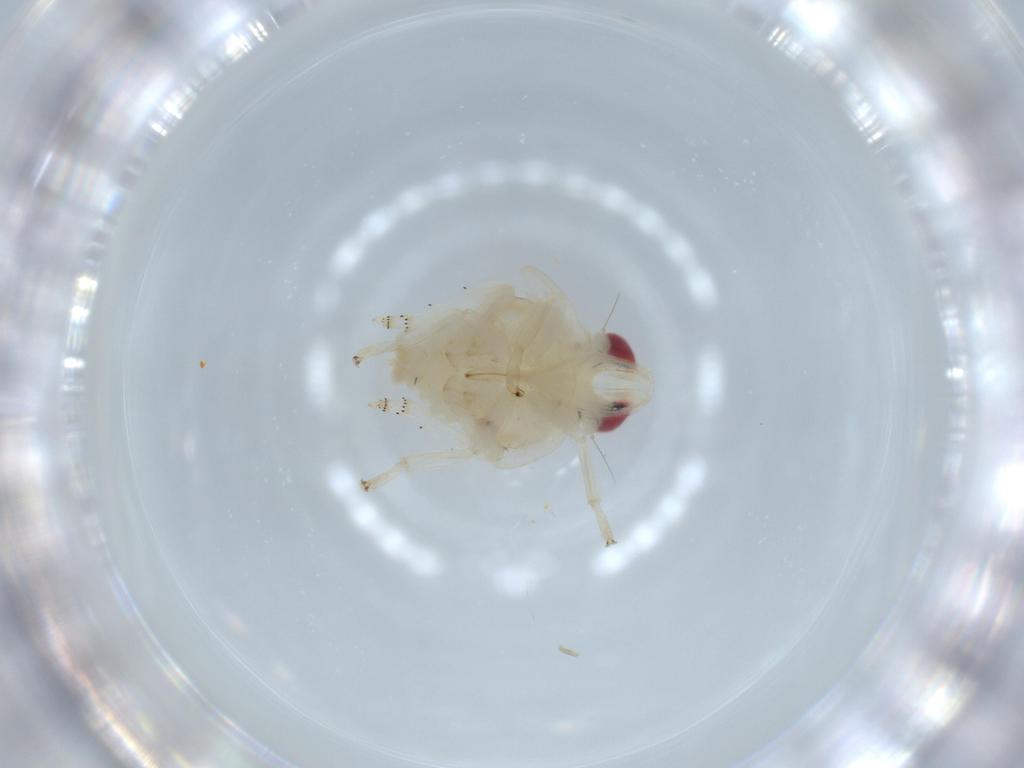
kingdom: Animalia
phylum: Arthropoda
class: Insecta
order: Hemiptera
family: Nogodinidae
